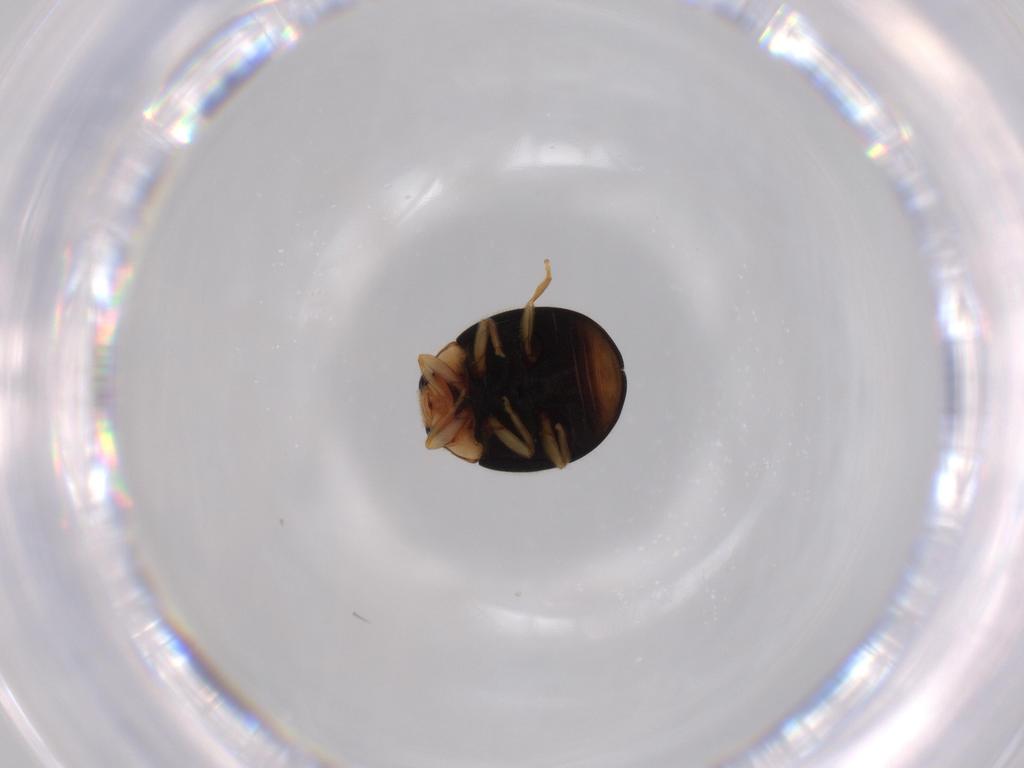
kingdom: Animalia
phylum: Arthropoda
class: Insecta
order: Coleoptera
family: Coccinellidae
